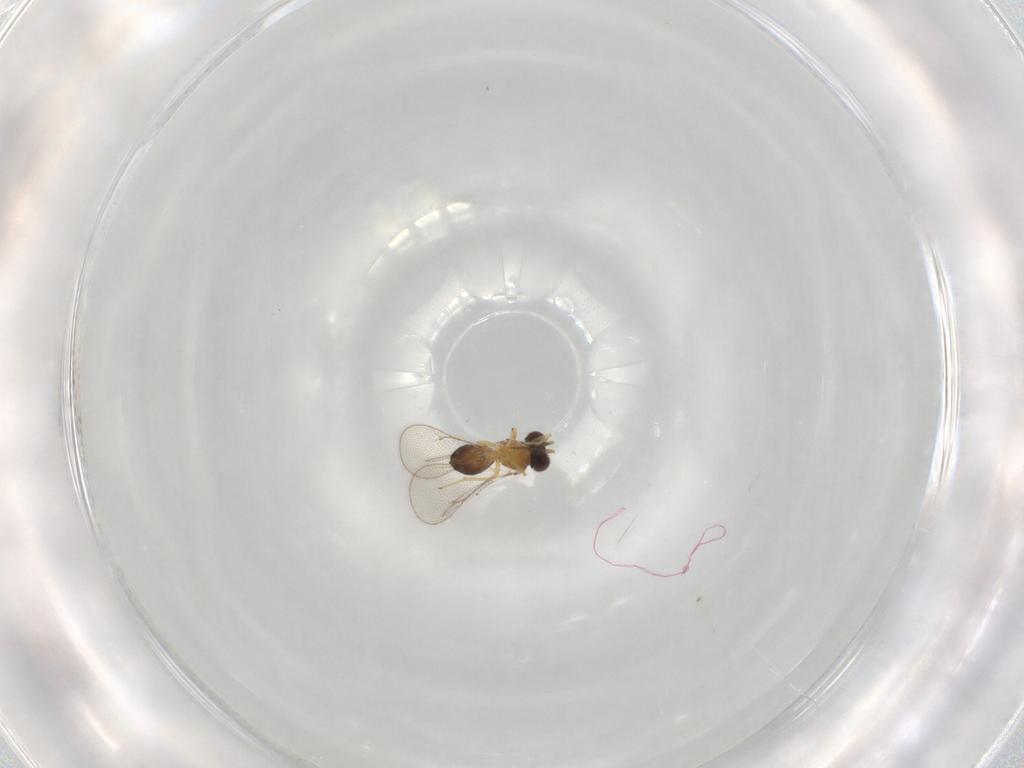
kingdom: Animalia
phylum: Arthropoda
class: Insecta
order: Hymenoptera
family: Eulophidae
